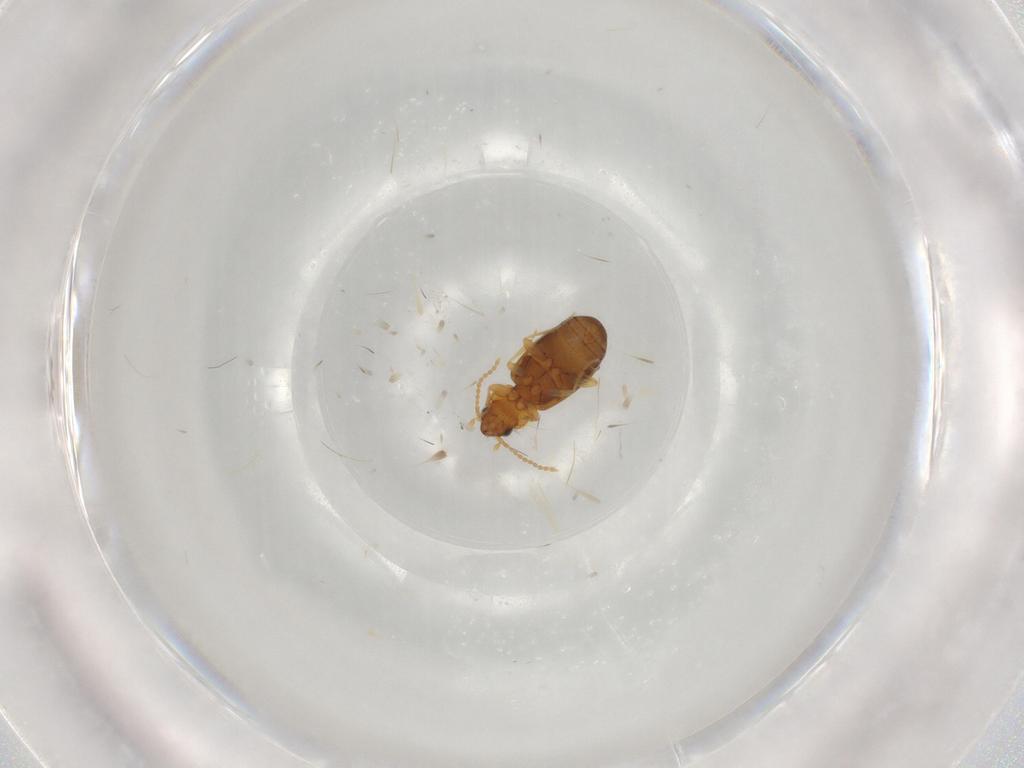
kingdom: Animalia
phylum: Arthropoda
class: Insecta
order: Coleoptera
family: Carabidae
